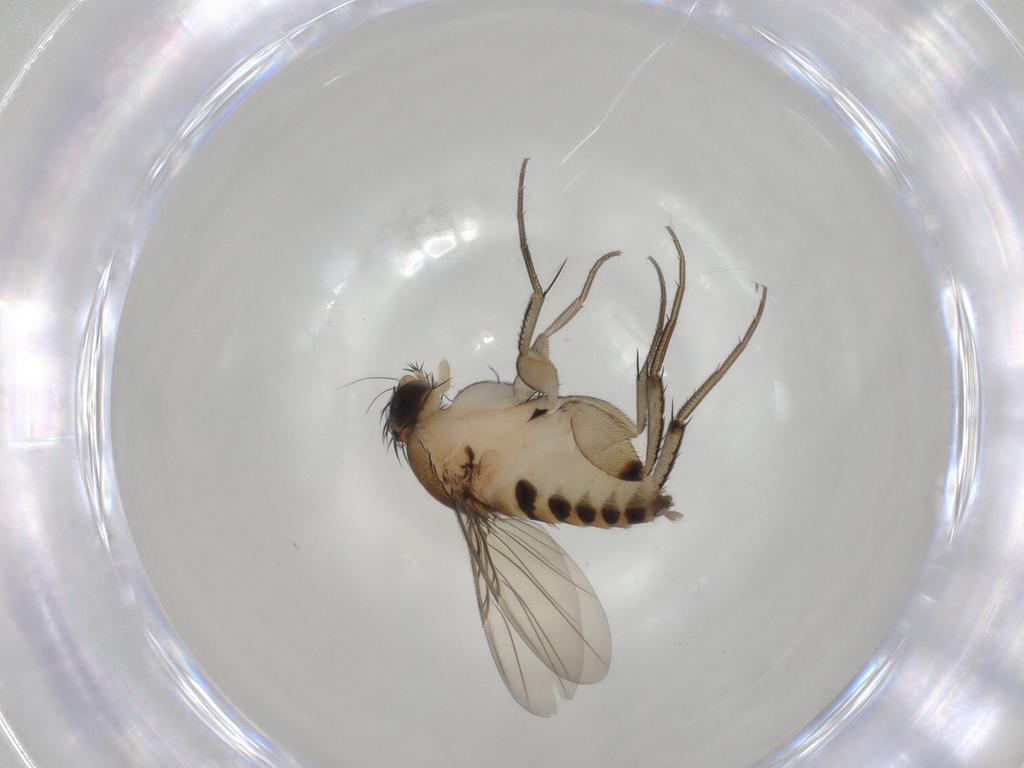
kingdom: Animalia
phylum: Arthropoda
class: Insecta
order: Diptera
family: Phoridae
